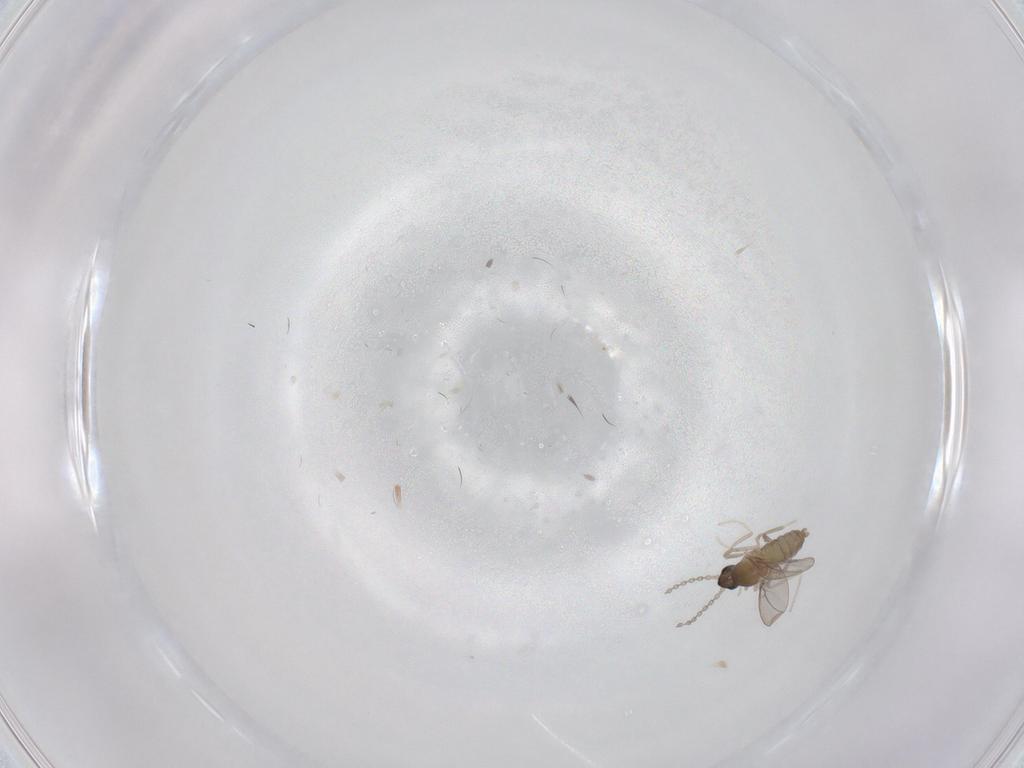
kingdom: Animalia
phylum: Arthropoda
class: Insecta
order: Diptera
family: Cecidomyiidae
